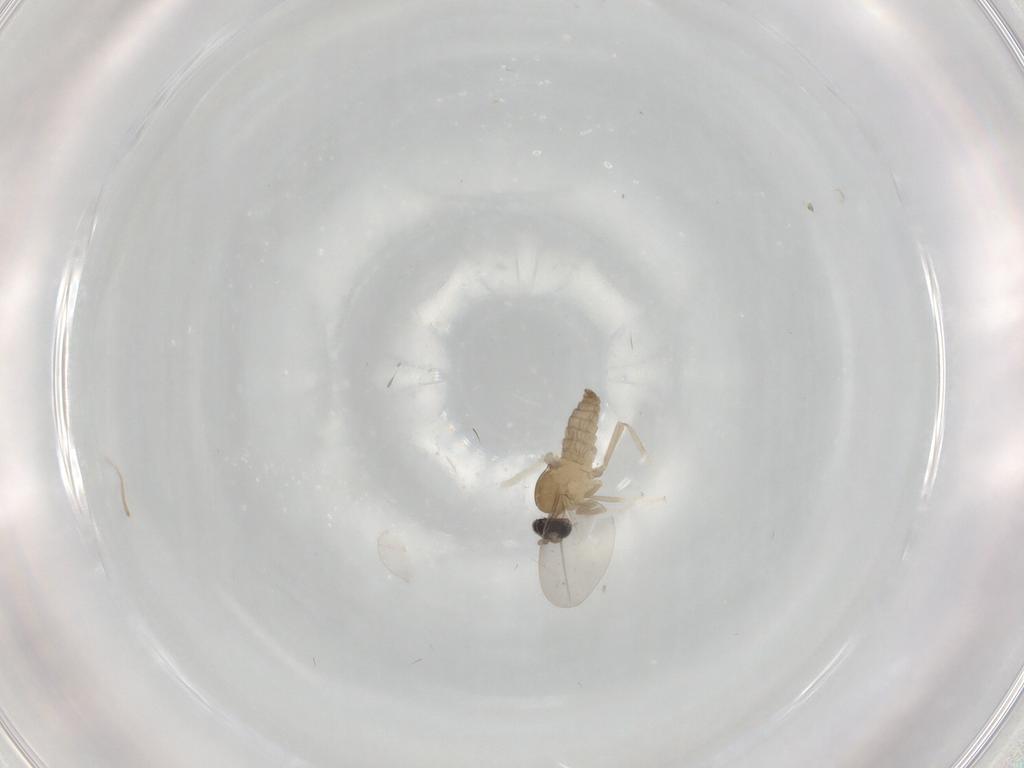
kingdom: Animalia
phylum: Arthropoda
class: Insecta
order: Diptera
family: Cecidomyiidae
